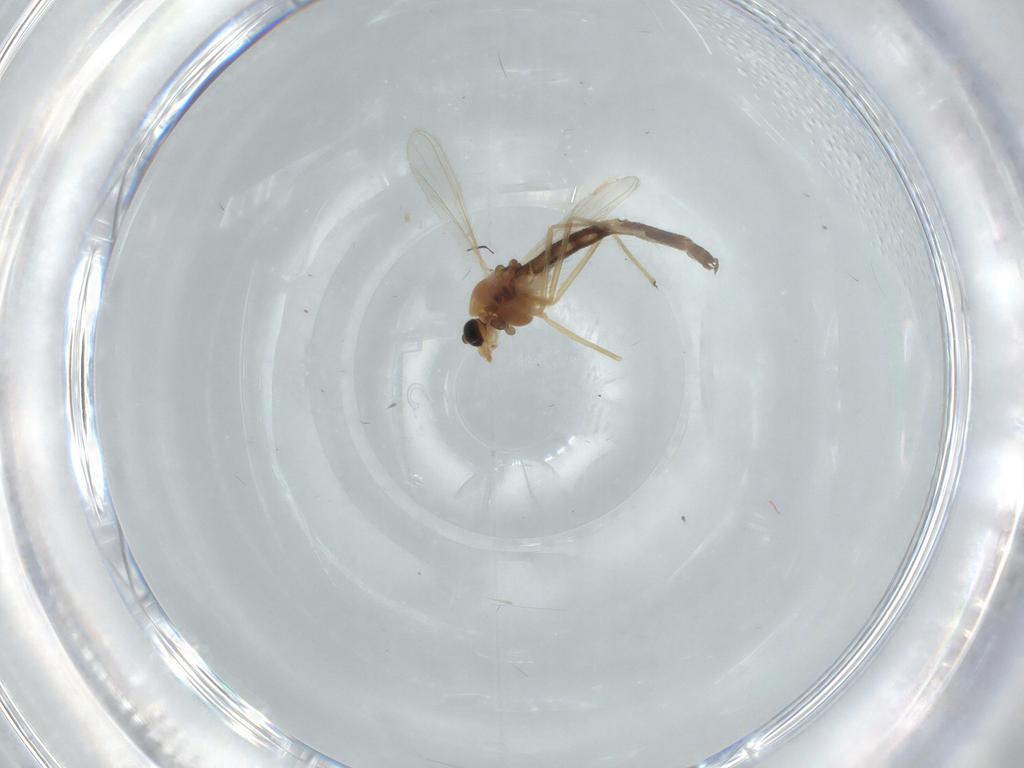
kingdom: Animalia
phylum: Arthropoda
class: Insecta
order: Diptera
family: Chironomidae
